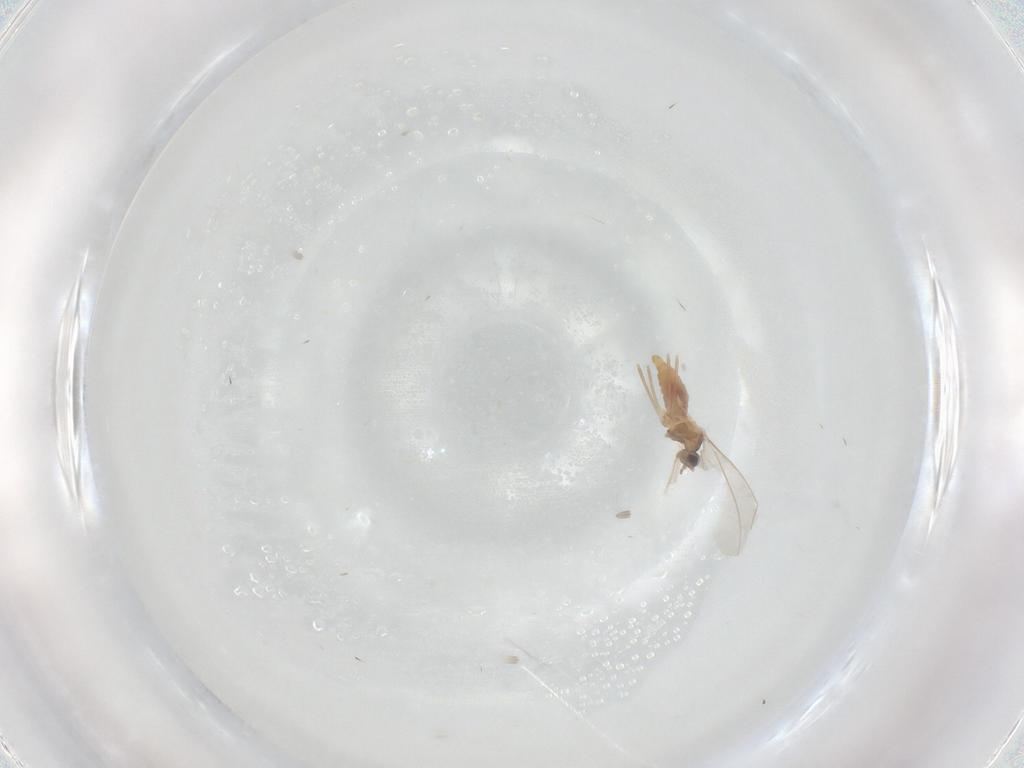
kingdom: Animalia
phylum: Arthropoda
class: Insecta
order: Diptera
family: Cecidomyiidae
